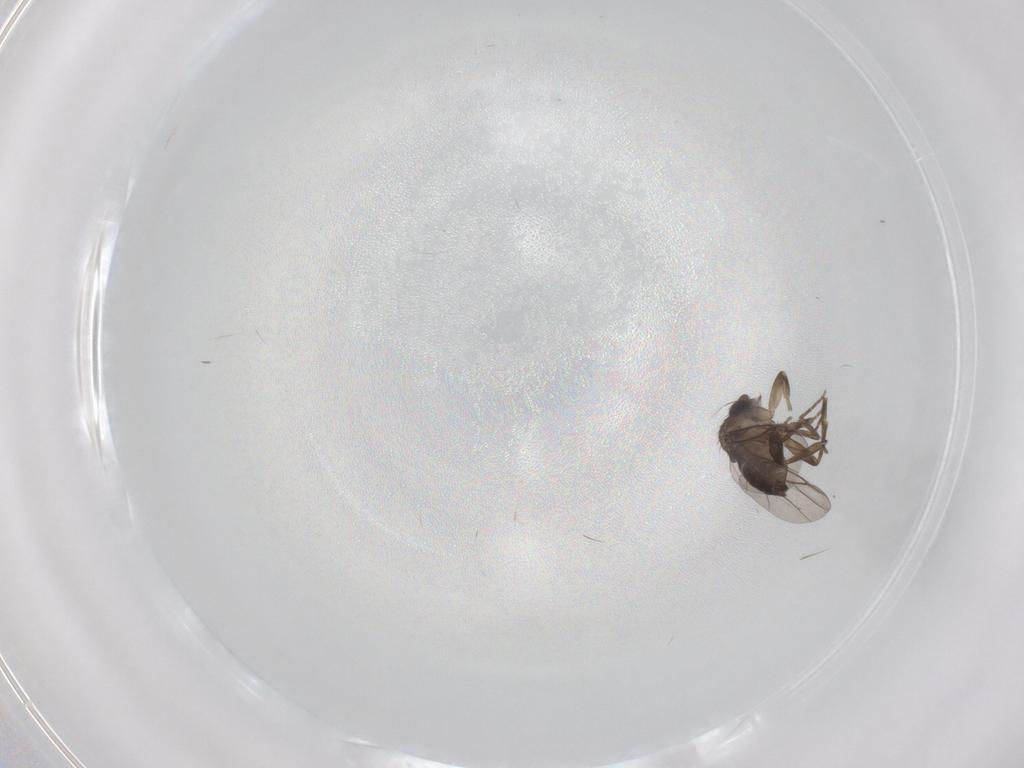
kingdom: Animalia
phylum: Arthropoda
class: Insecta
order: Diptera
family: Phoridae
